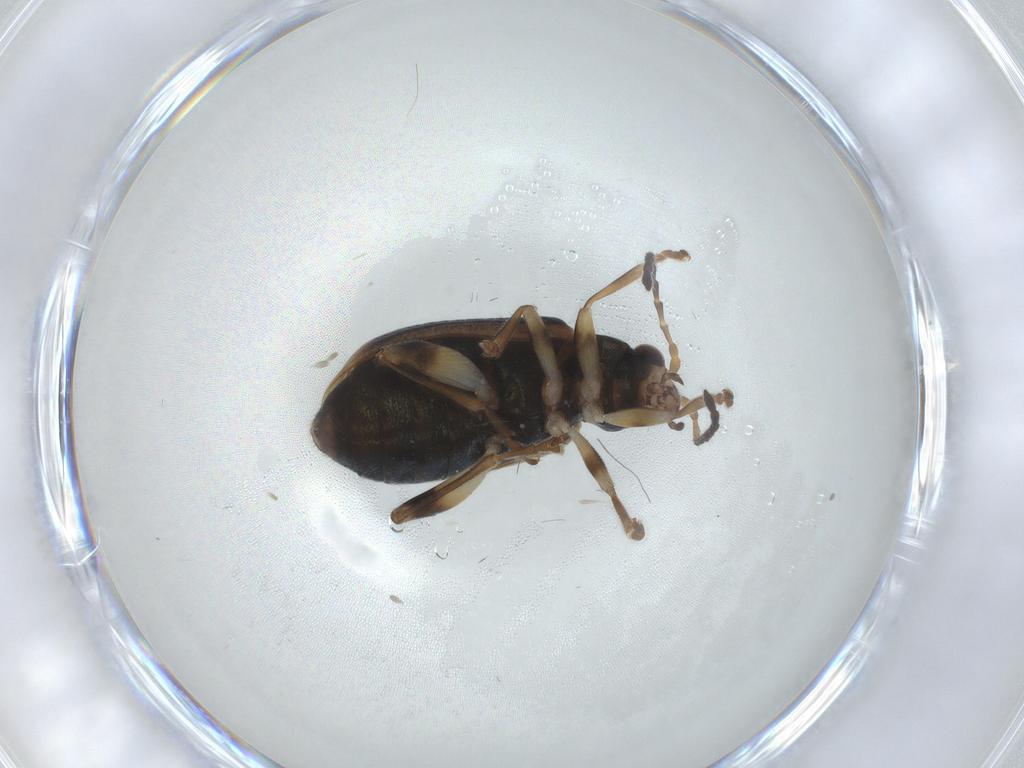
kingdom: Animalia
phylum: Arthropoda
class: Insecta
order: Coleoptera
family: Chrysomelidae
